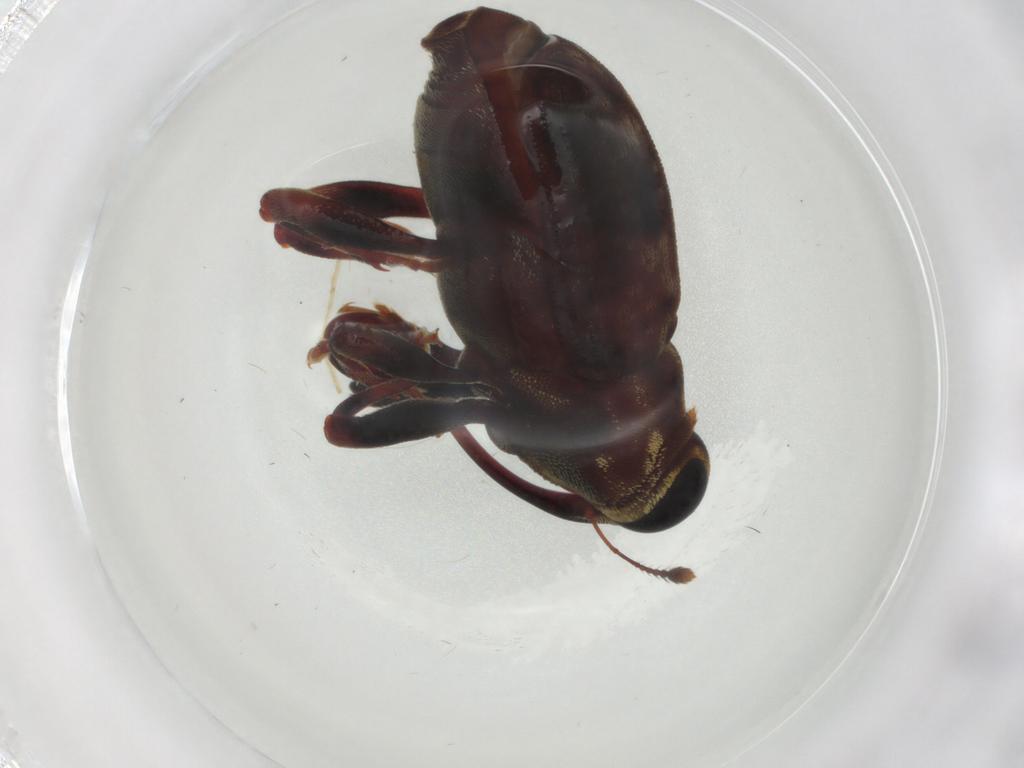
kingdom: Animalia
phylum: Arthropoda
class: Insecta
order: Coleoptera
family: Curculionidae
